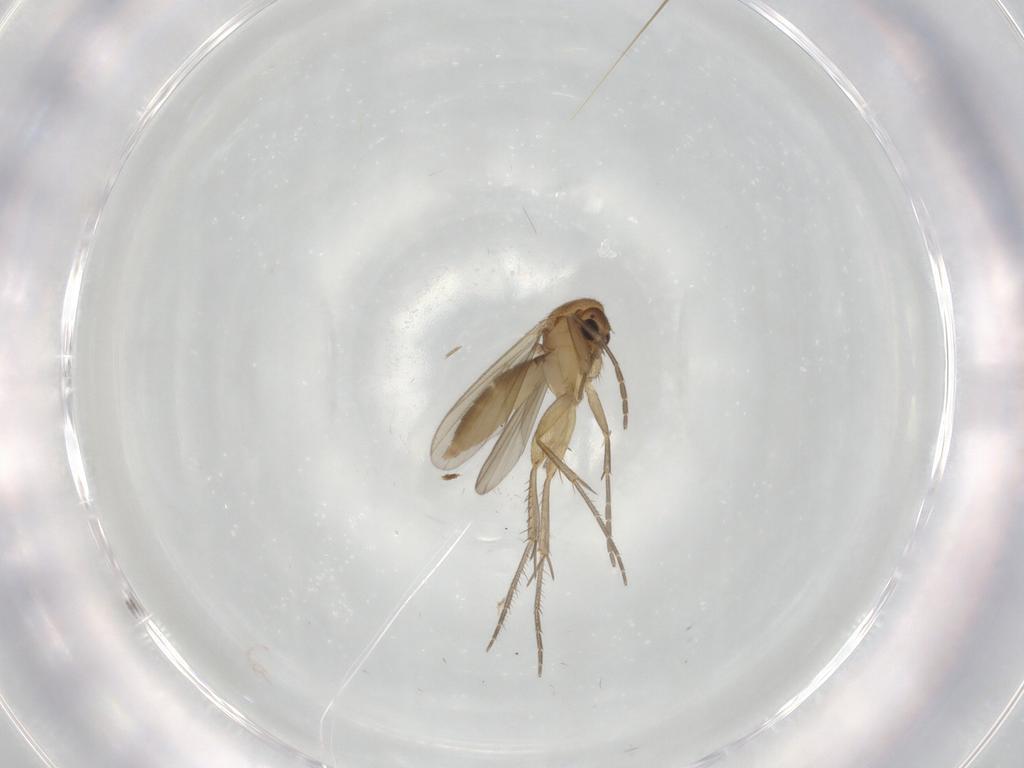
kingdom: Animalia
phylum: Arthropoda
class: Insecta
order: Diptera
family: Mycetophilidae
